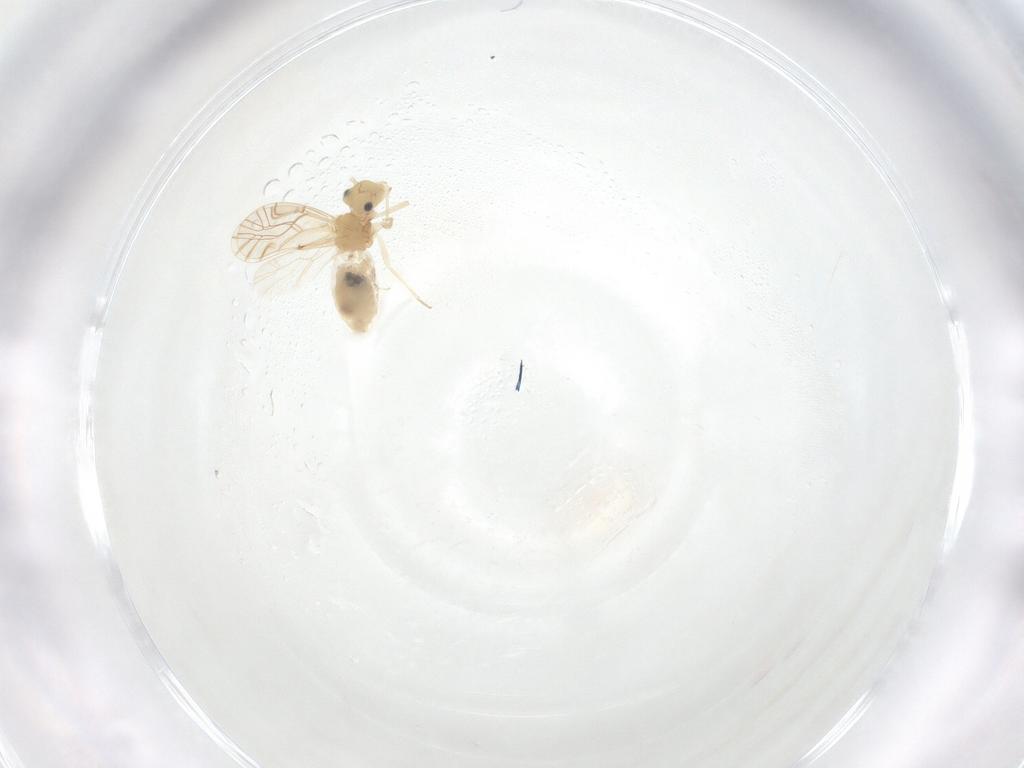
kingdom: Animalia
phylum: Arthropoda
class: Insecta
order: Psocodea
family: Lachesillidae
